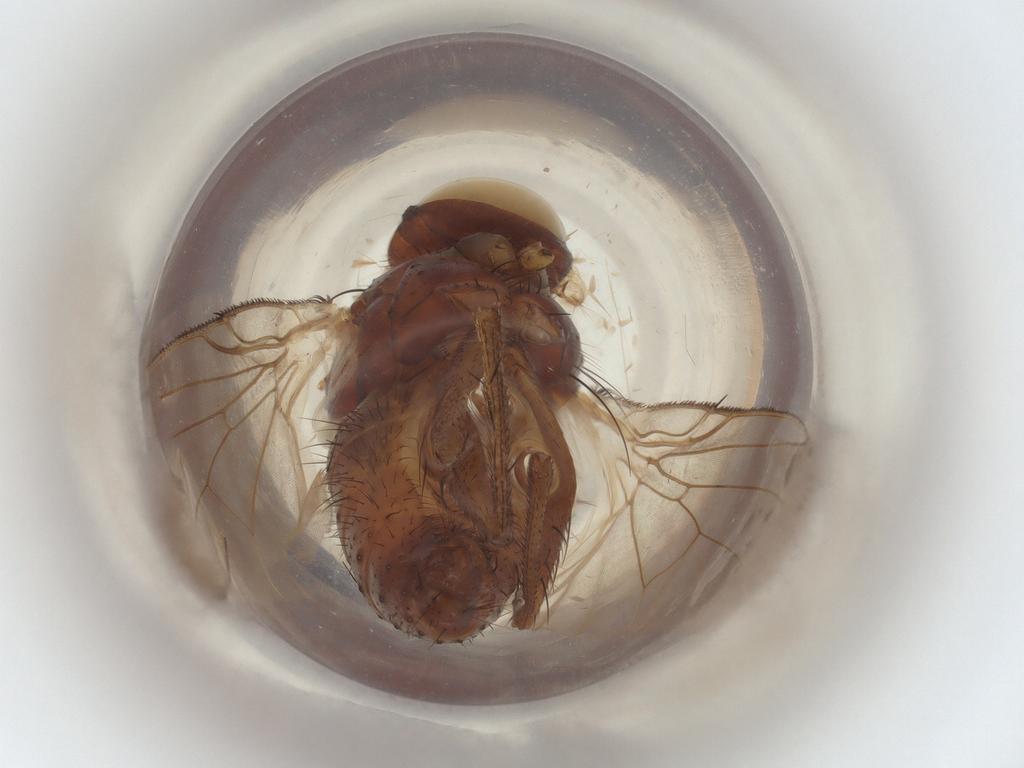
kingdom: Animalia
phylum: Arthropoda
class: Insecta
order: Diptera
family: Muscidae
